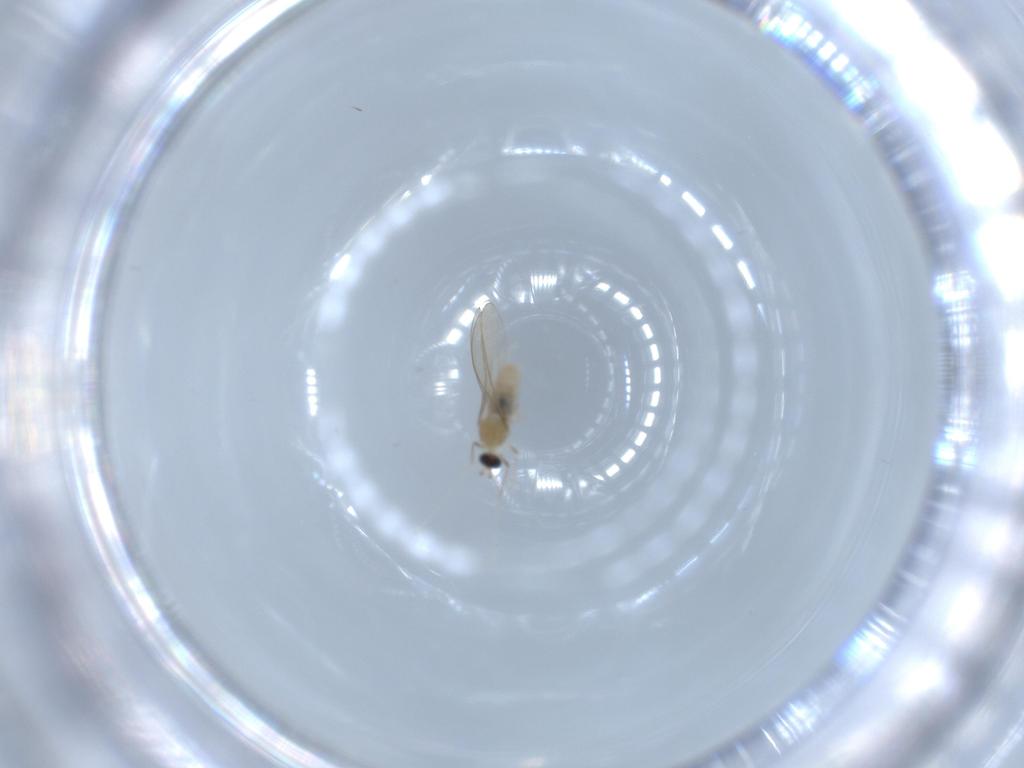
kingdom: Animalia
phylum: Arthropoda
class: Insecta
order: Diptera
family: Cecidomyiidae
